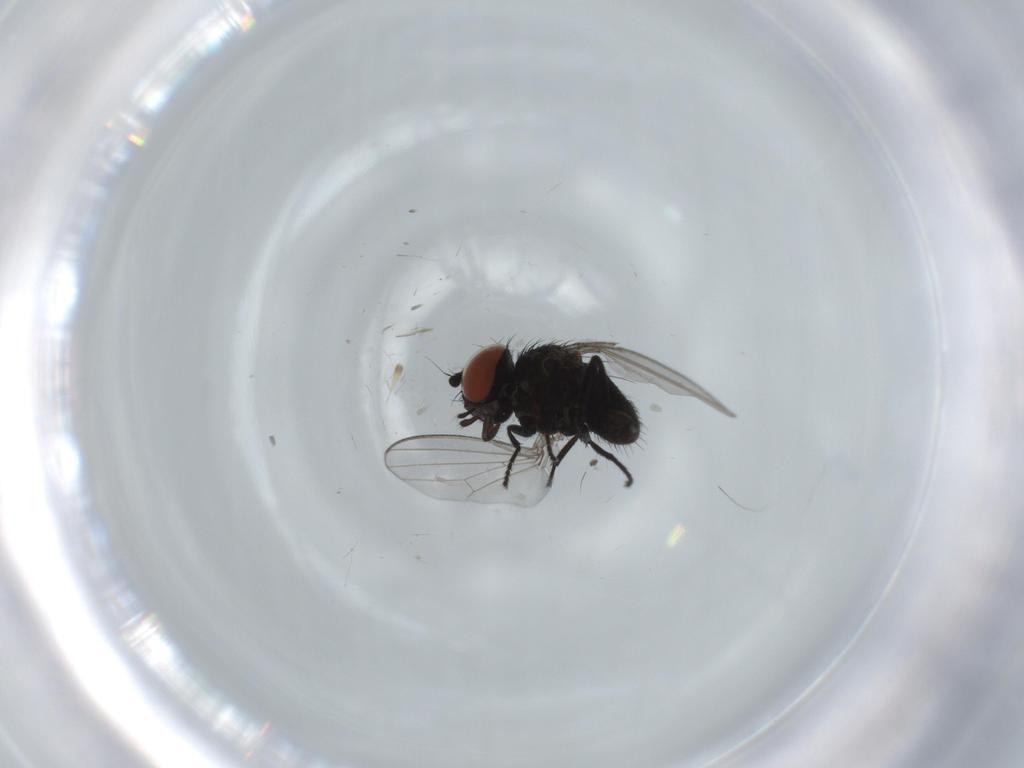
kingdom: Animalia
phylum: Arthropoda
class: Insecta
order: Diptera
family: Milichiidae
